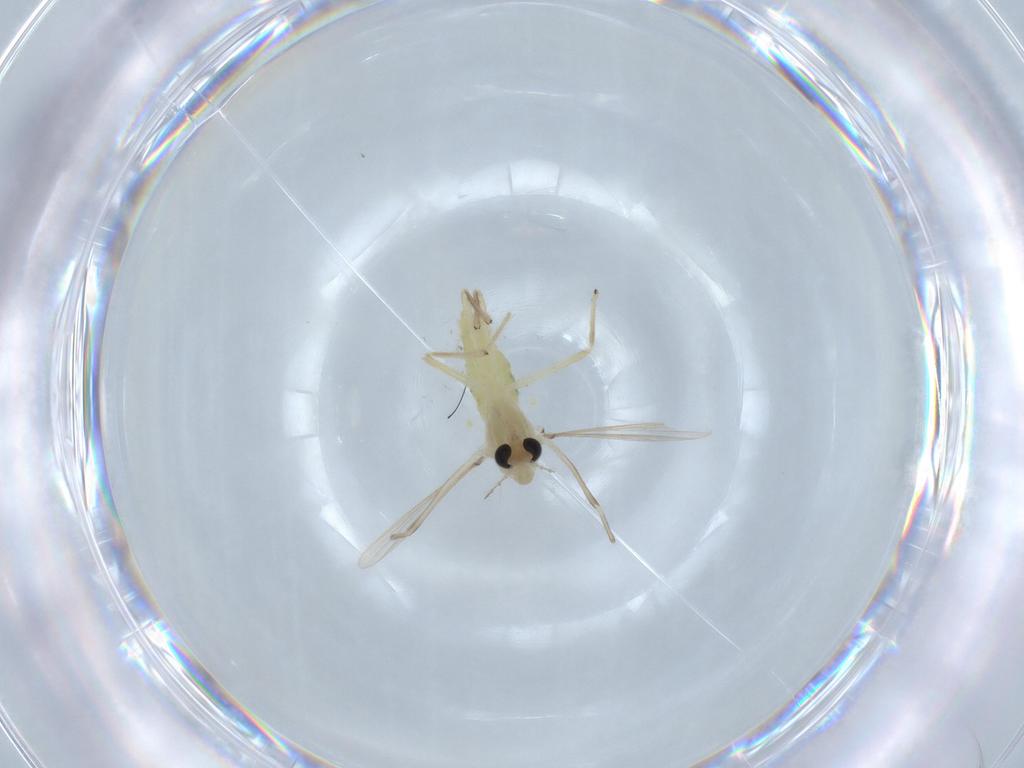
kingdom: Animalia
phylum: Arthropoda
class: Insecta
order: Diptera
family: Chironomidae
